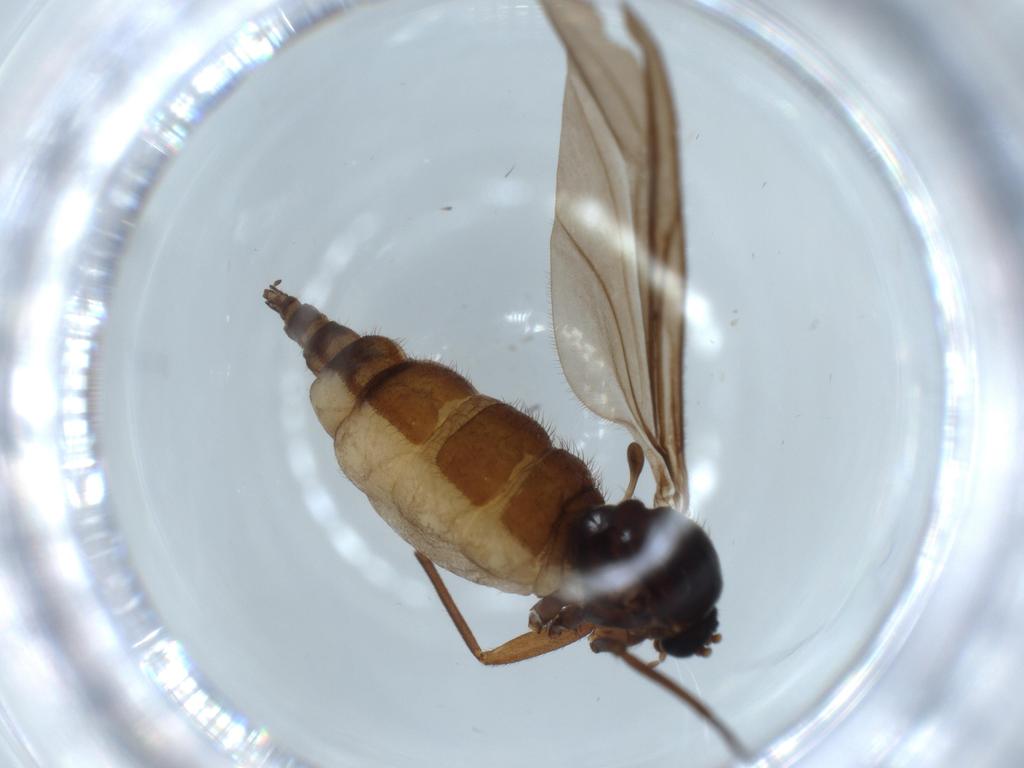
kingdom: Animalia
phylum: Arthropoda
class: Insecta
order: Diptera
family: Sciaridae
